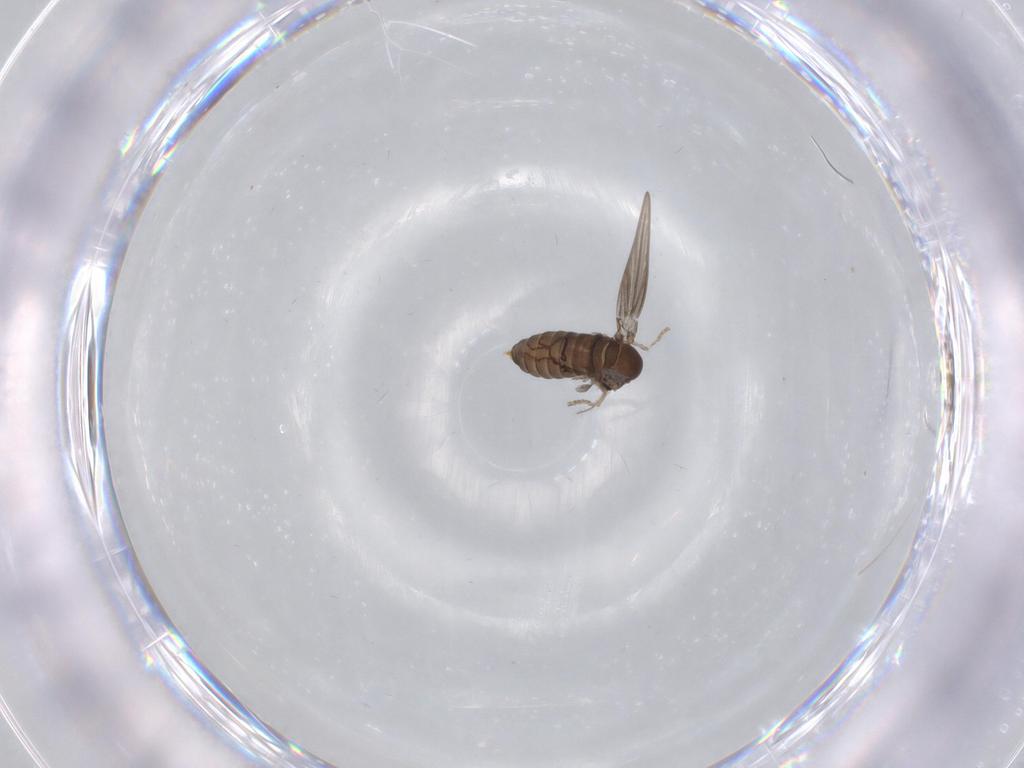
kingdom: Animalia
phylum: Arthropoda
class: Insecta
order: Diptera
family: Psychodidae
